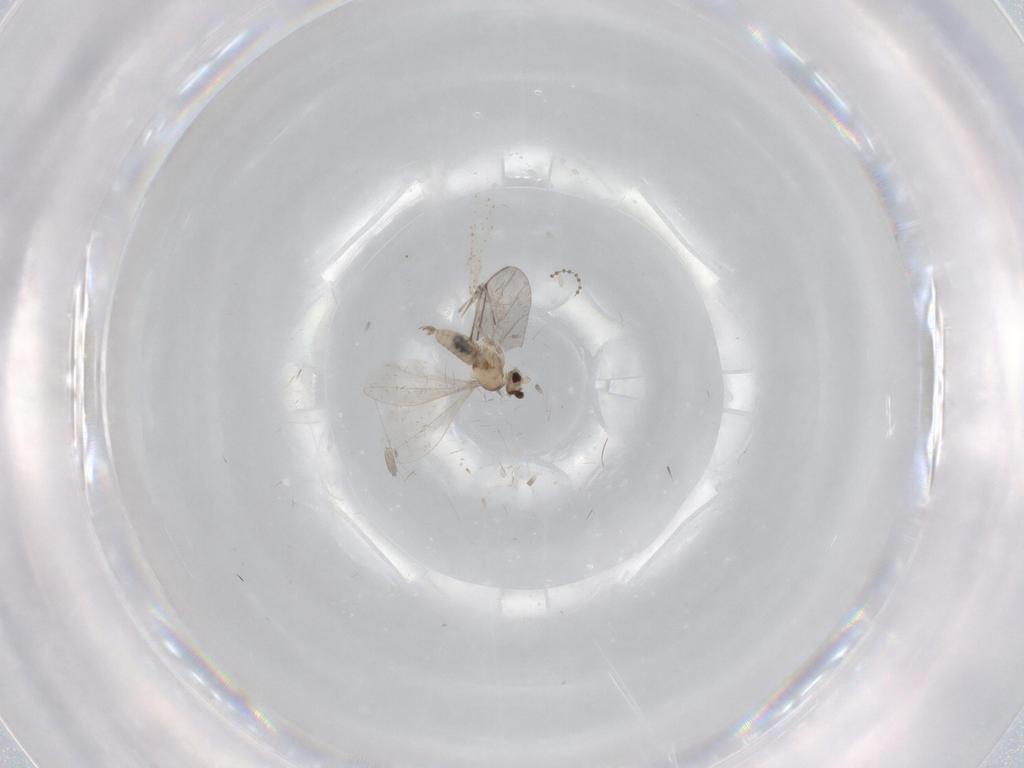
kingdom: Animalia
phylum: Arthropoda
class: Insecta
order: Diptera
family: Cecidomyiidae
